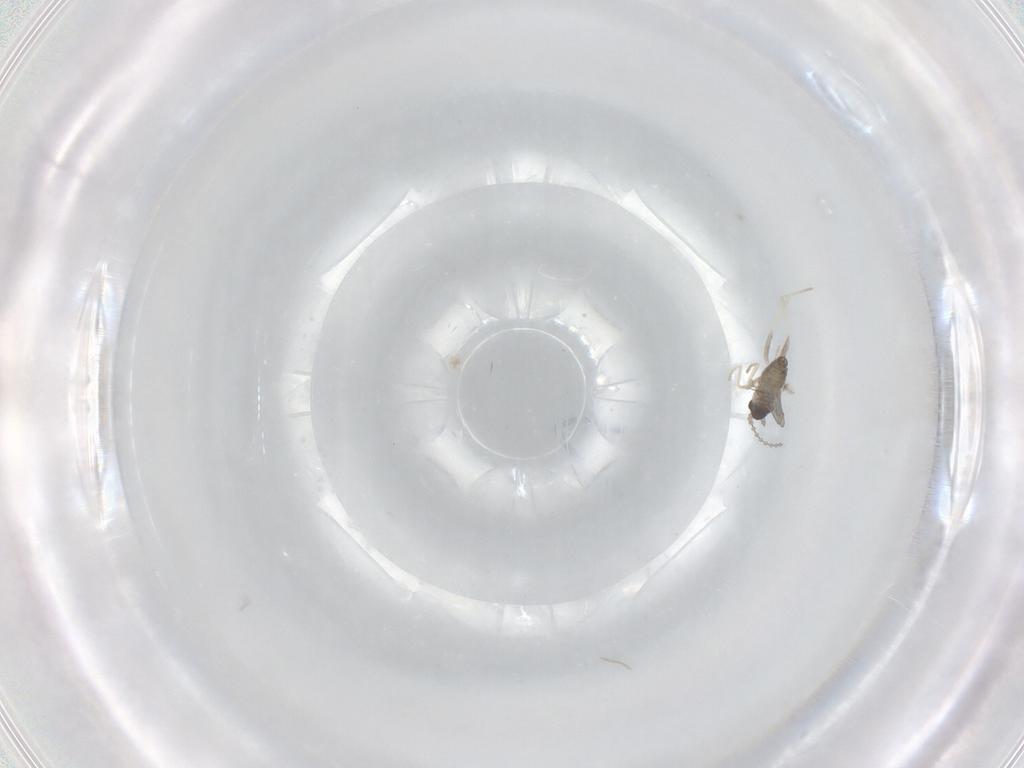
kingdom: Animalia
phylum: Arthropoda
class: Insecta
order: Diptera
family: Cecidomyiidae
